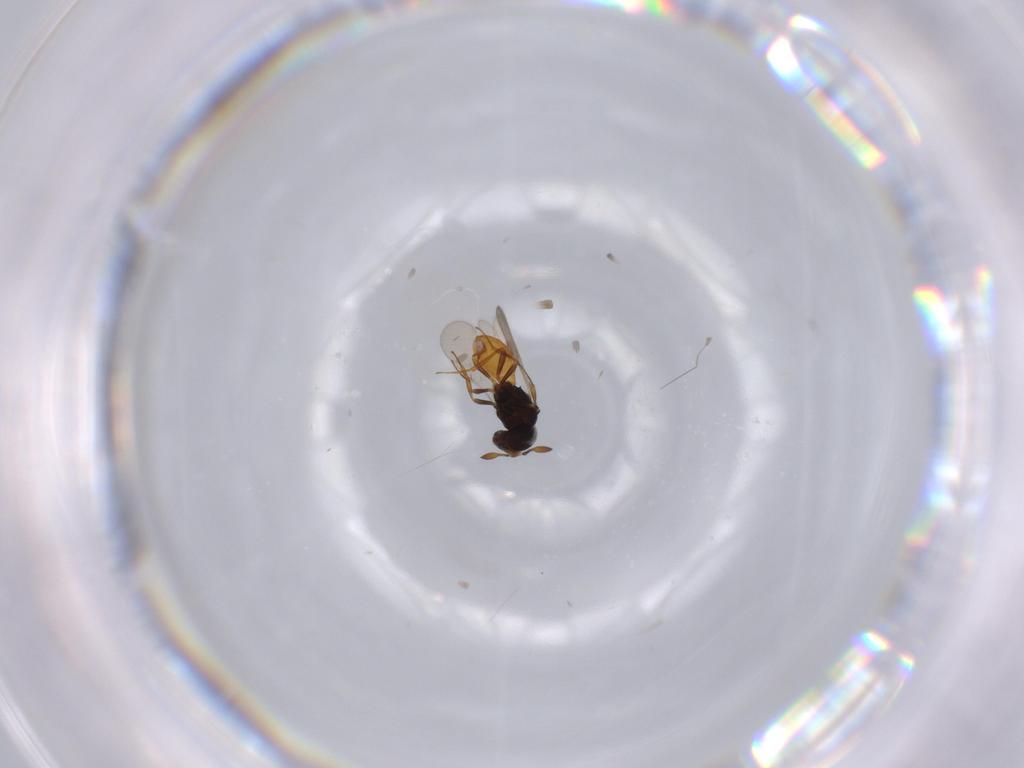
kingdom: Animalia
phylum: Arthropoda
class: Insecta
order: Hymenoptera
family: Scelionidae
